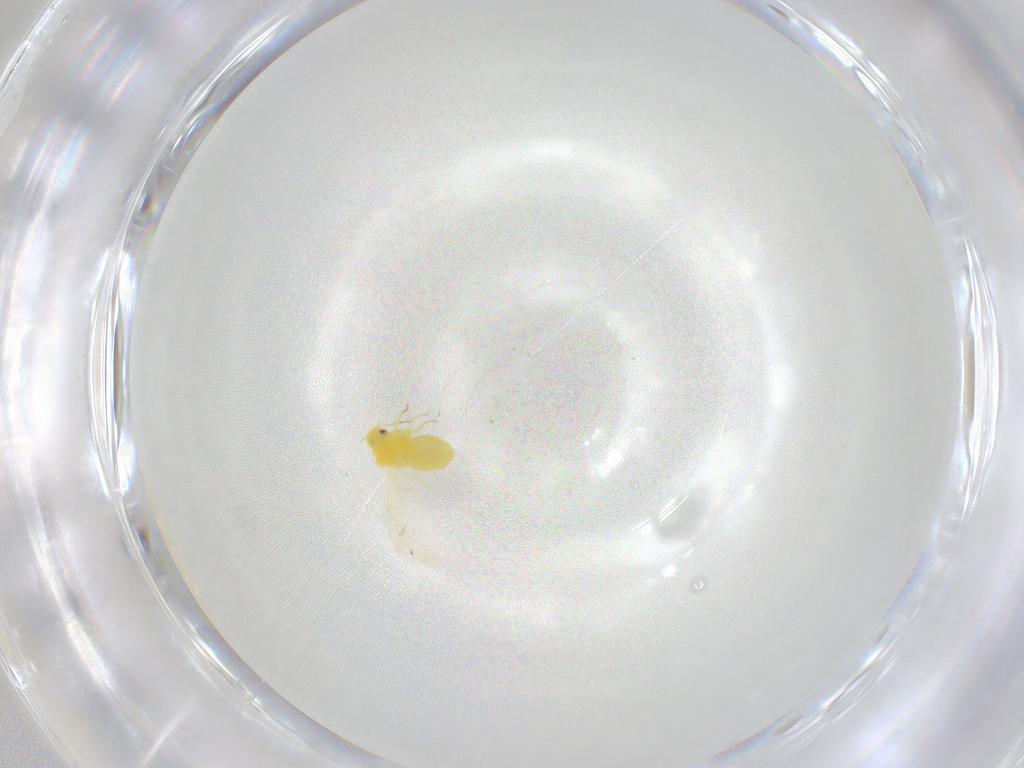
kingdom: Animalia
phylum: Arthropoda
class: Insecta
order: Hemiptera
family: Aleyrodidae
